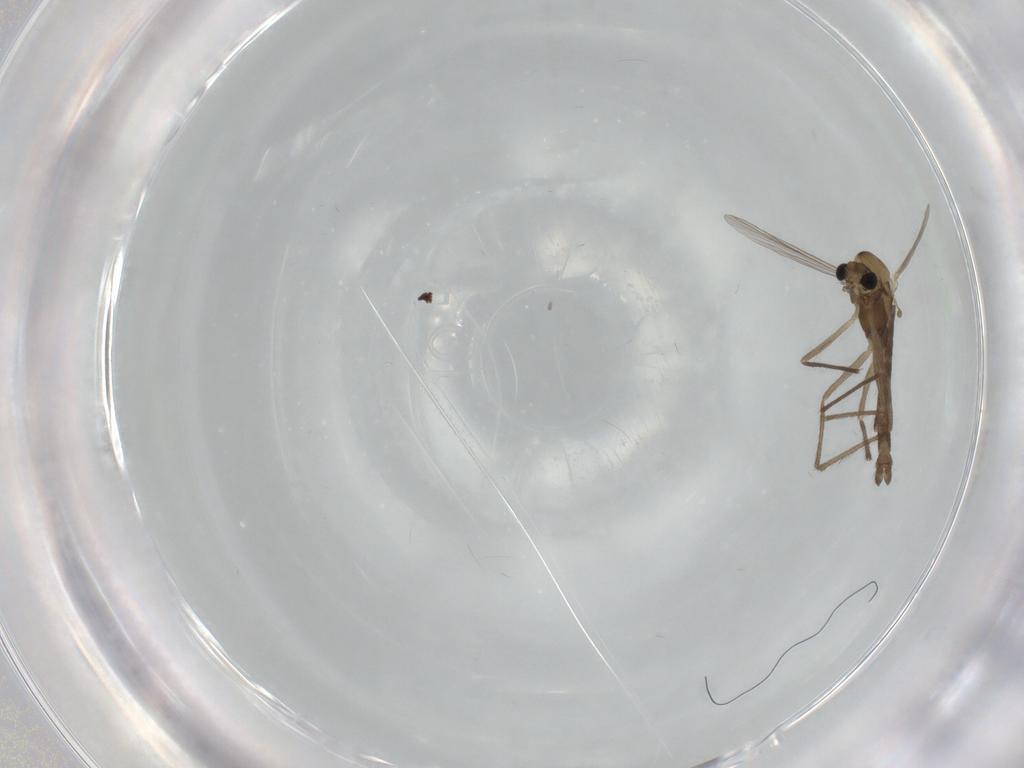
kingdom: Animalia
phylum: Arthropoda
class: Insecta
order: Diptera
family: Chironomidae
